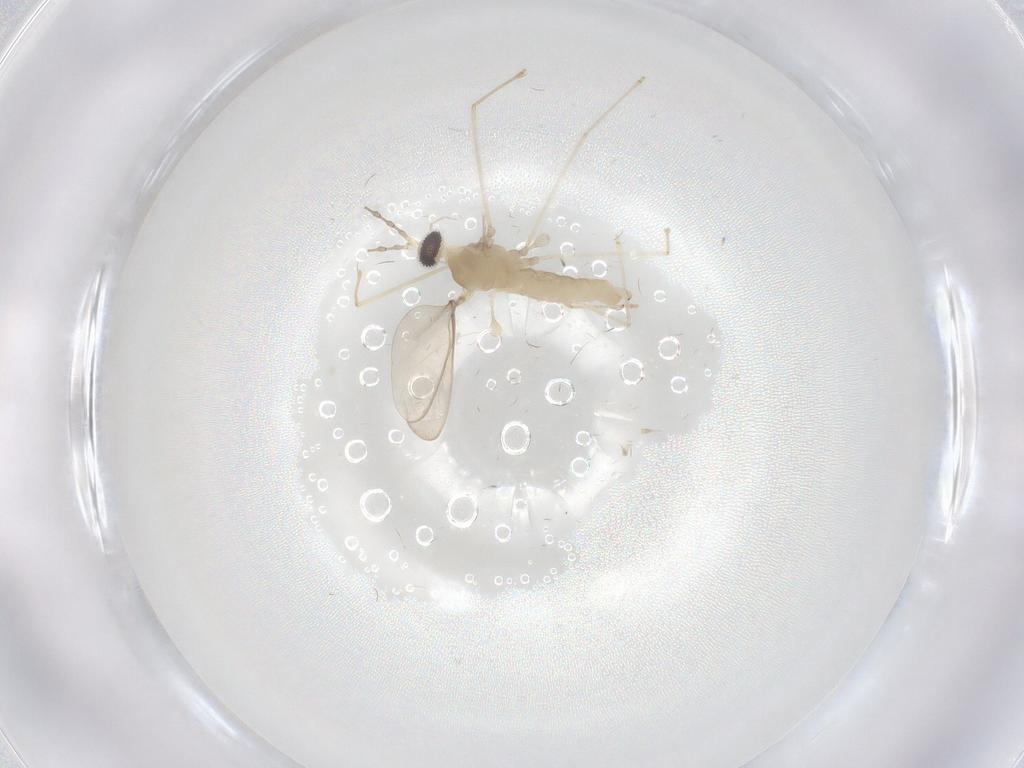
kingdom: Animalia
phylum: Arthropoda
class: Insecta
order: Diptera
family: Cecidomyiidae
